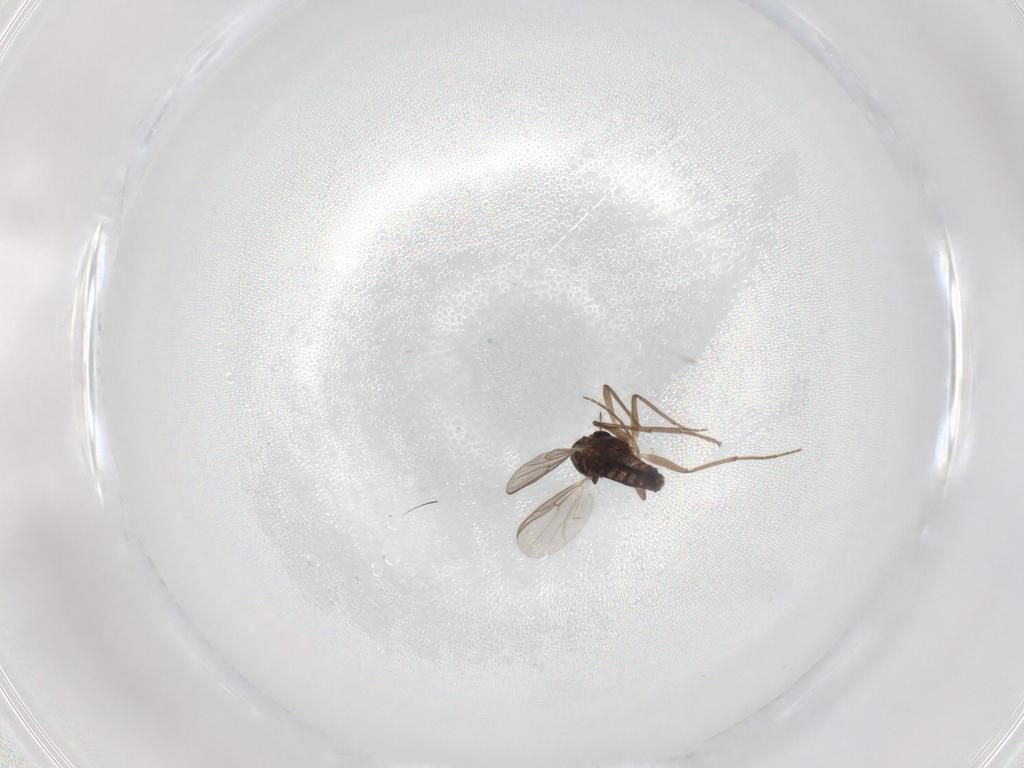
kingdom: Animalia
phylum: Arthropoda
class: Insecta
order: Diptera
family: Chironomidae
